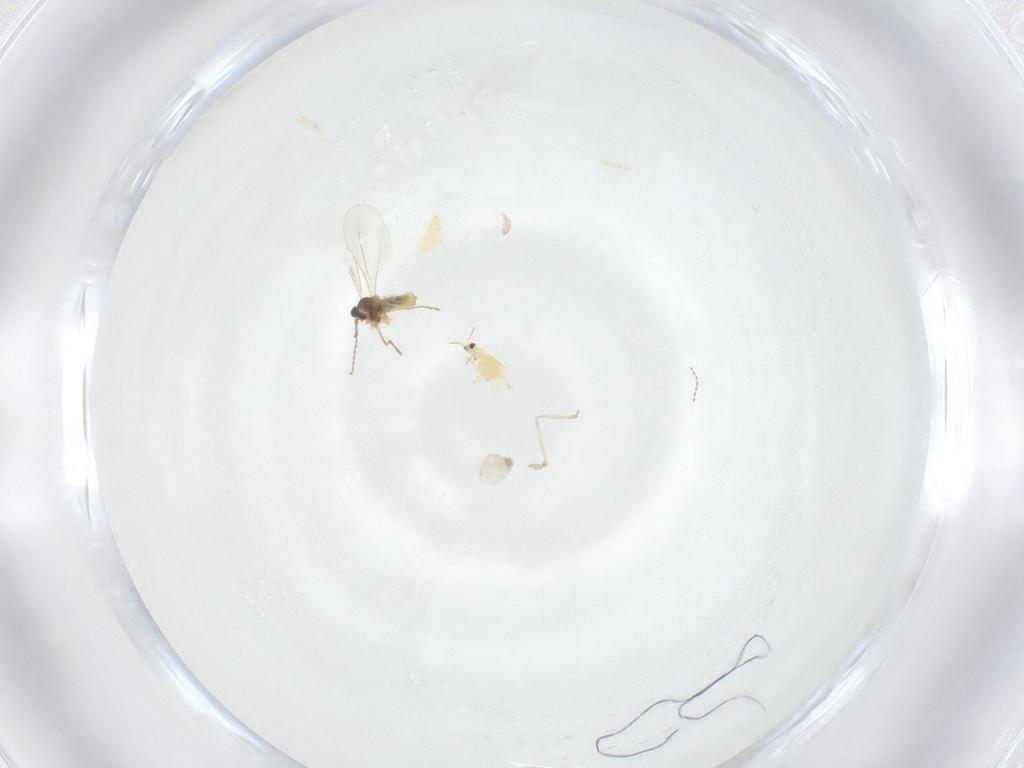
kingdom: Animalia
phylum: Arthropoda
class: Insecta
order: Diptera
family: Cecidomyiidae
